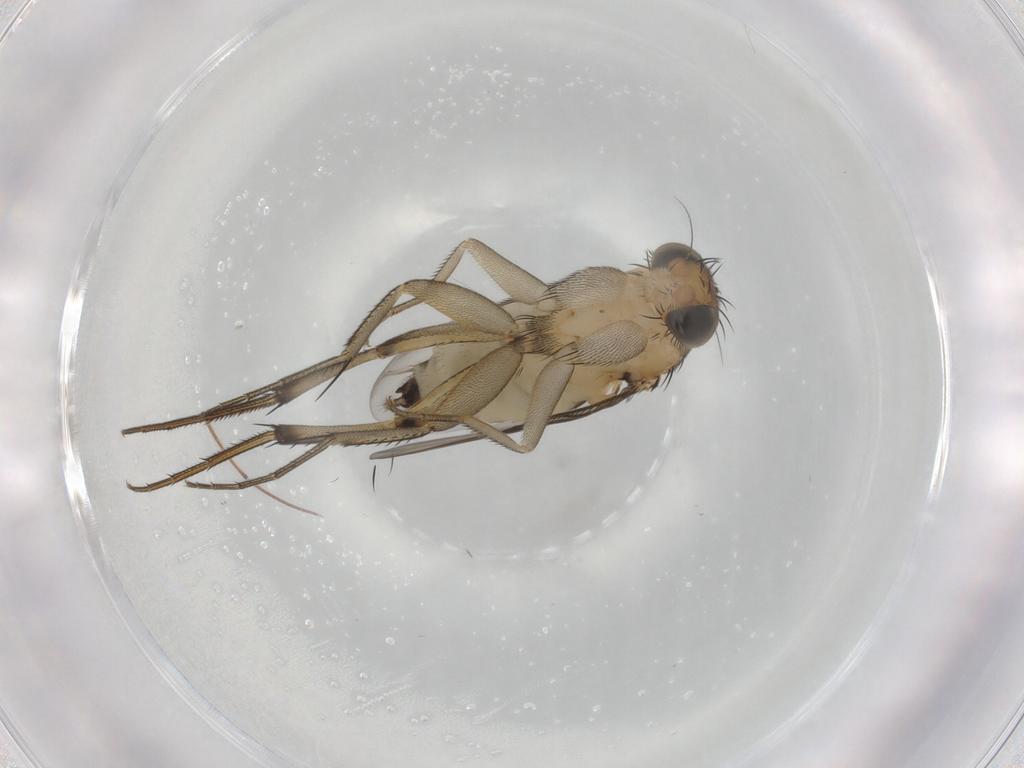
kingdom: Animalia
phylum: Arthropoda
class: Insecta
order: Diptera
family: Phoridae
